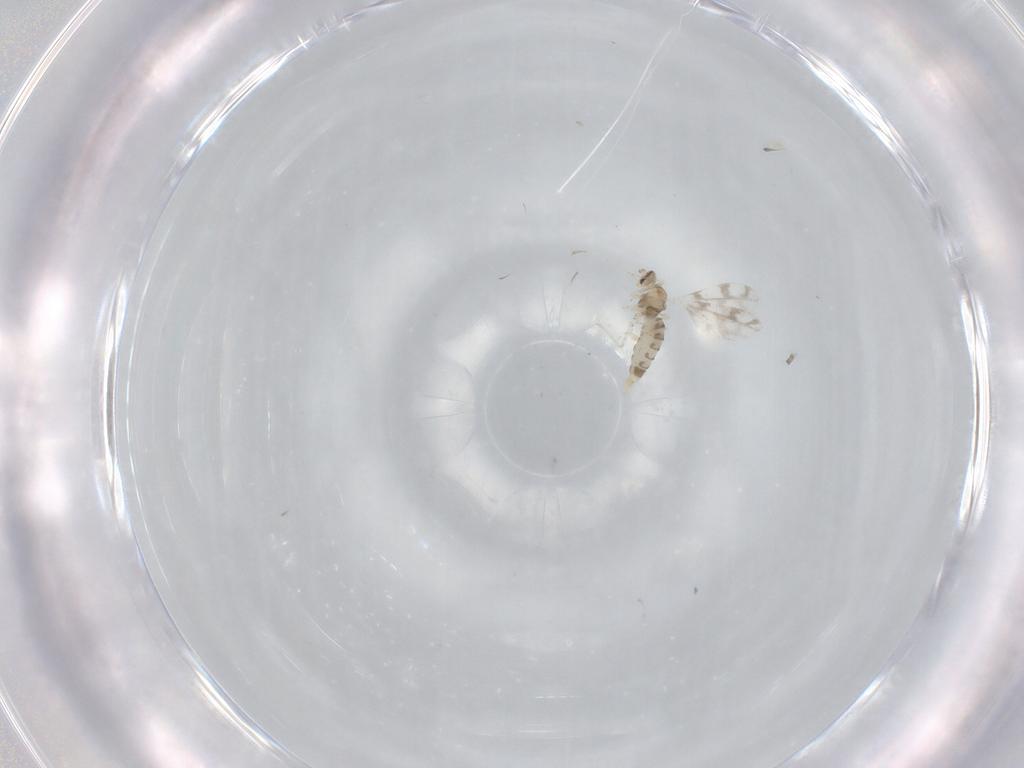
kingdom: Animalia
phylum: Arthropoda
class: Insecta
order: Diptera
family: Cecidomyiidae
